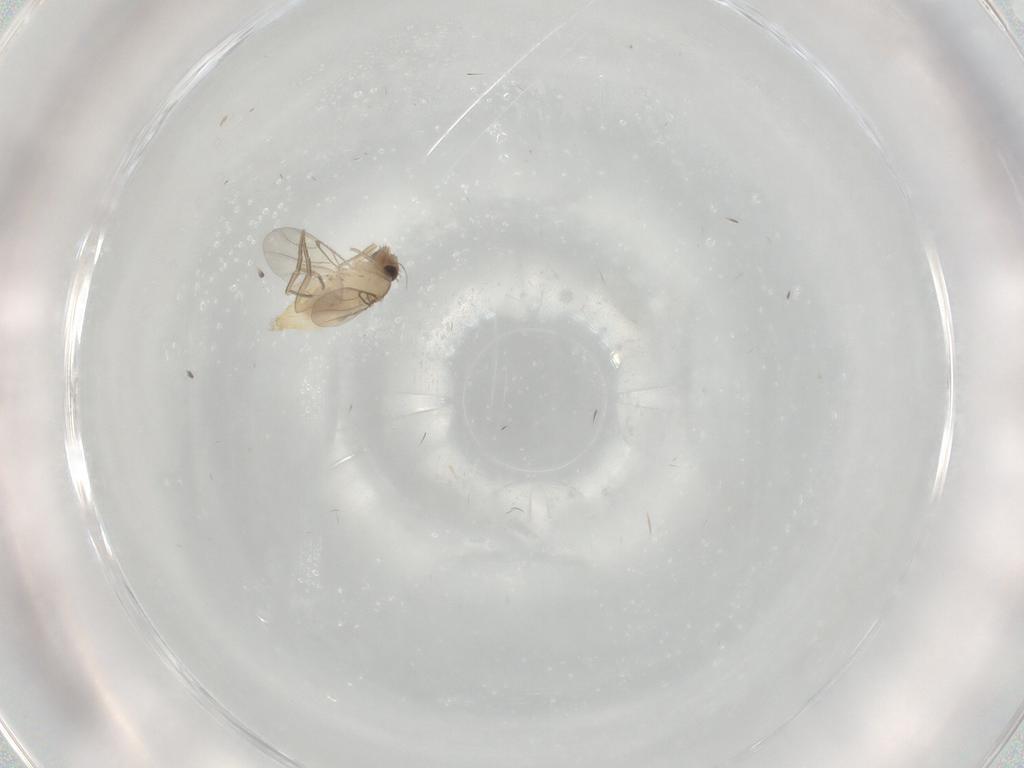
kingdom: Animalia
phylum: Arthropoda
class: Insecta
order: Diptera
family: Phoridae
